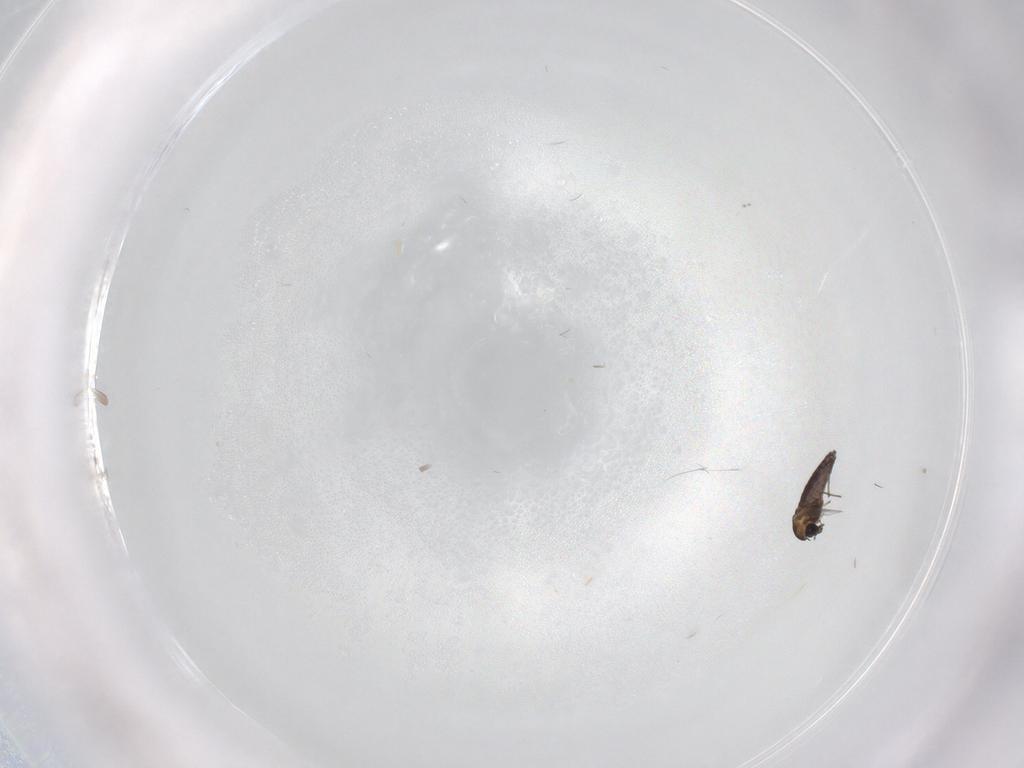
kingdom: Animalia
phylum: Arthropoda
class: Insecta
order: Diptera
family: Chironomidae
